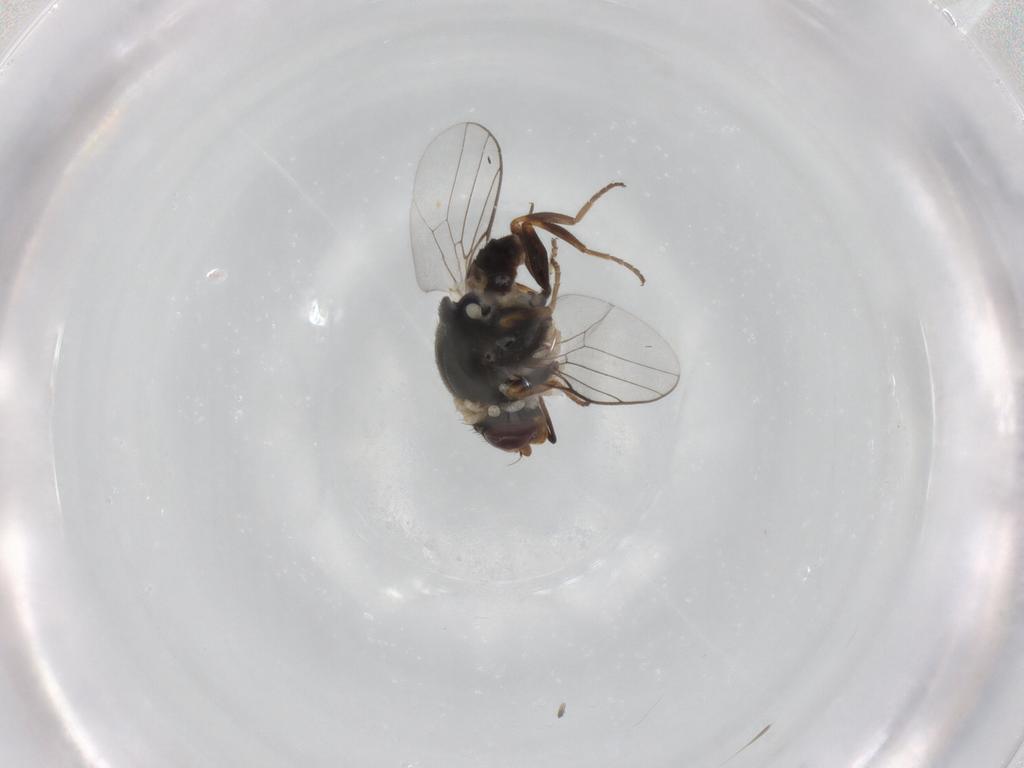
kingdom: Animalia
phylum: Arthropoda
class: Insecta
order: Diptera
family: Chloropidae
